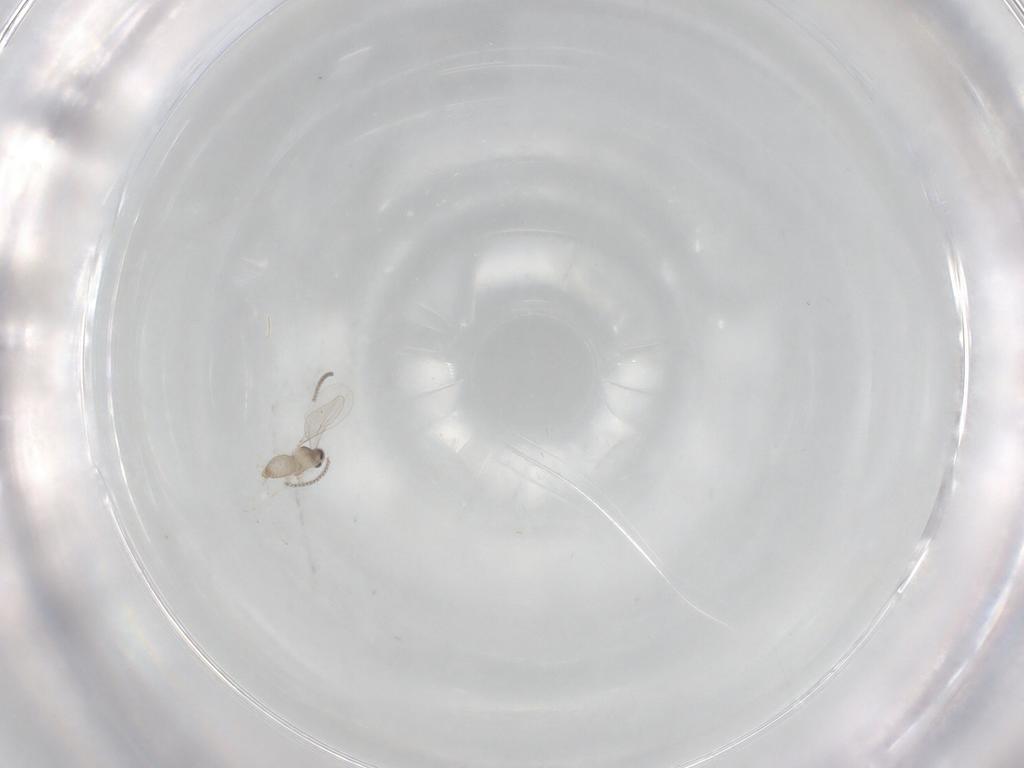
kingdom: Animalia
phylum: Arthropoda
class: Insecta
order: Diptera
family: Cecidomyiidae
